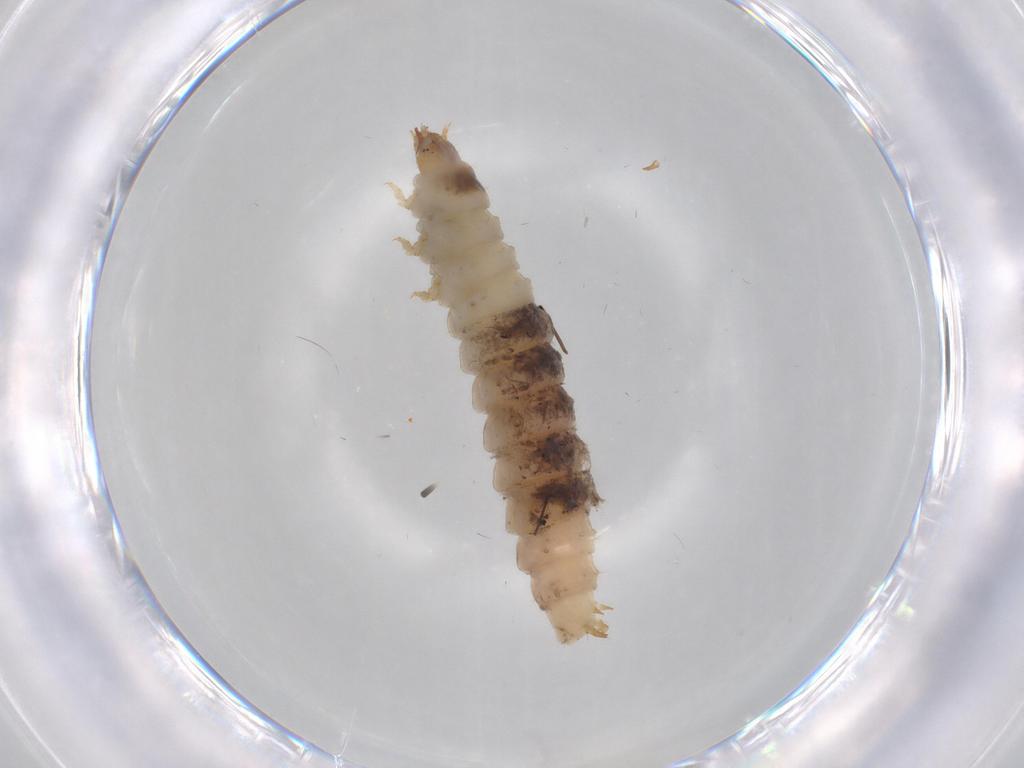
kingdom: Animalia
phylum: Arthropoda
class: Insecta
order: Coleoptera
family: Nitidulidae
